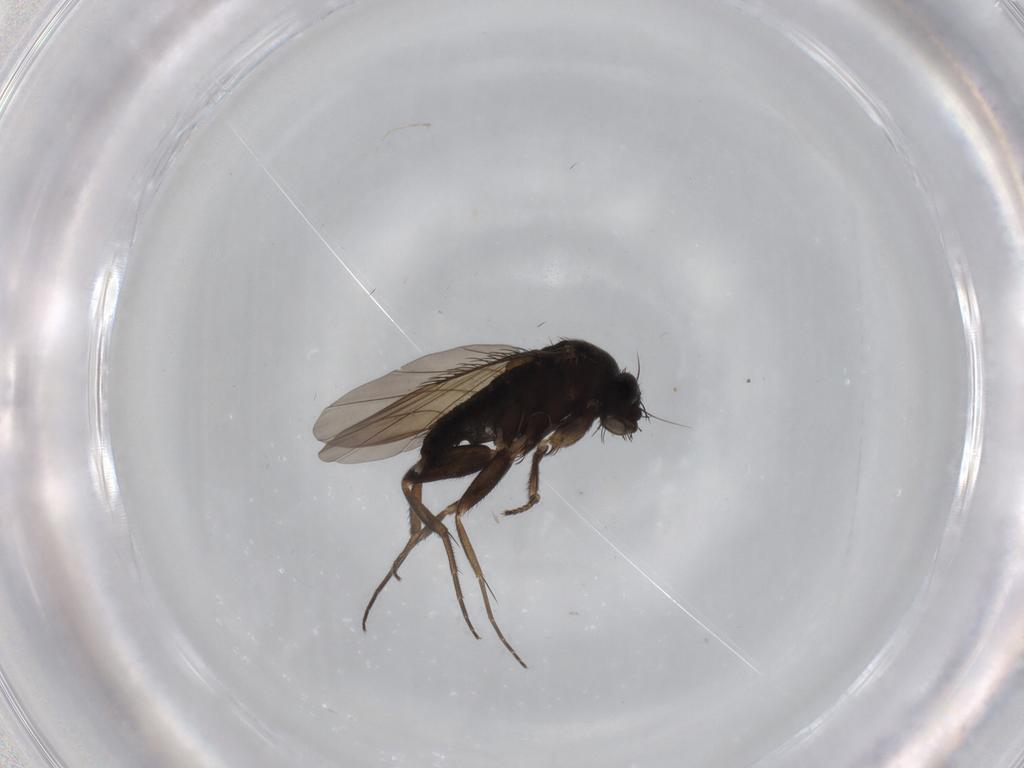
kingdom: Animalia
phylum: Arthropoda
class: Insecta
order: Diptera
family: Phoridae
